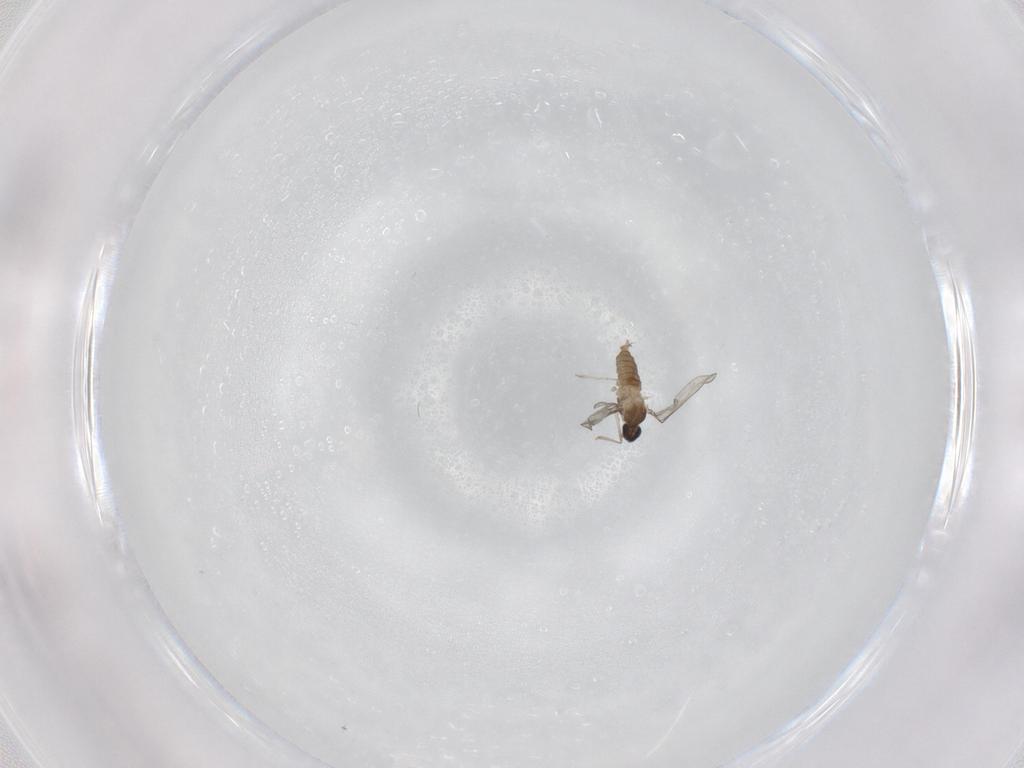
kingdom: Animalia
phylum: Arthropoda
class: Insecta
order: Diptera
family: Cecidomyiidae
